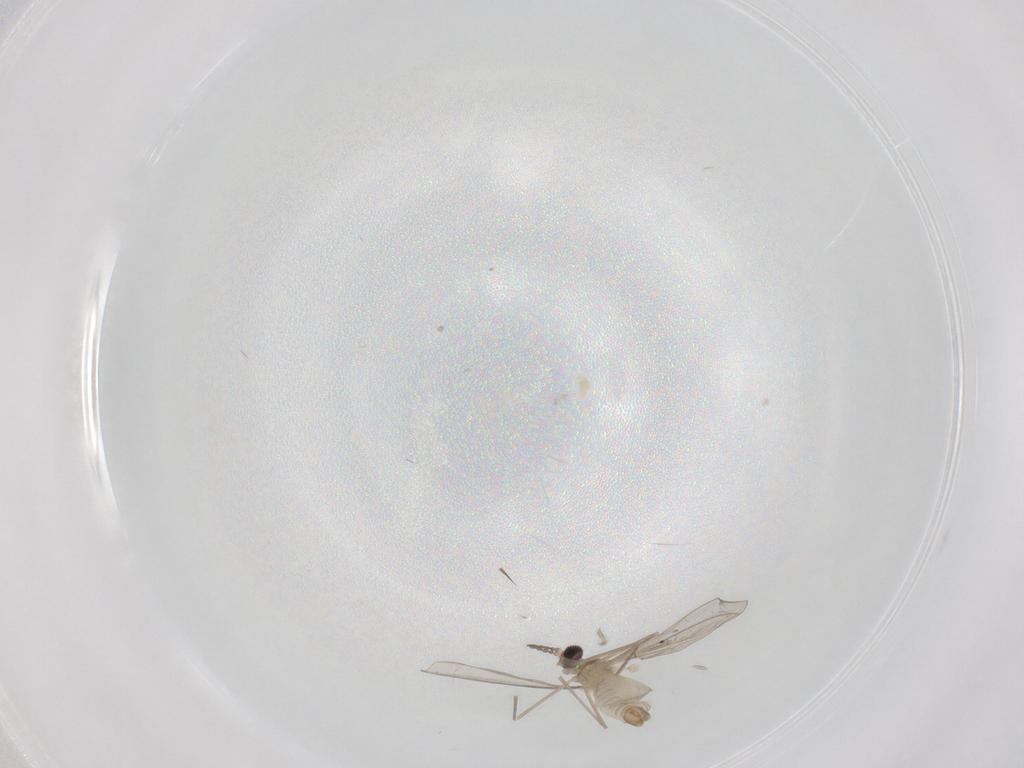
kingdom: Animalia
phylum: Arthropoda
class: Insecta
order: Diptera
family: Cecidomyiidae
